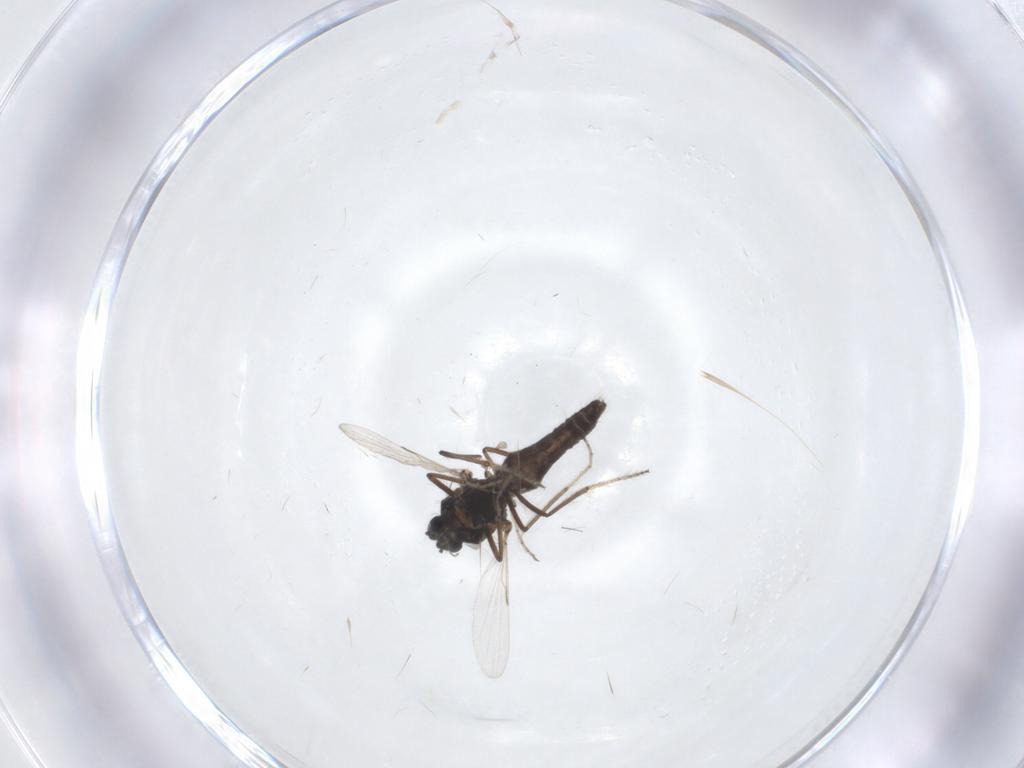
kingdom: Animalia
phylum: Arthropoda
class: Insecta
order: Diptera
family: Ceratopogonidae
